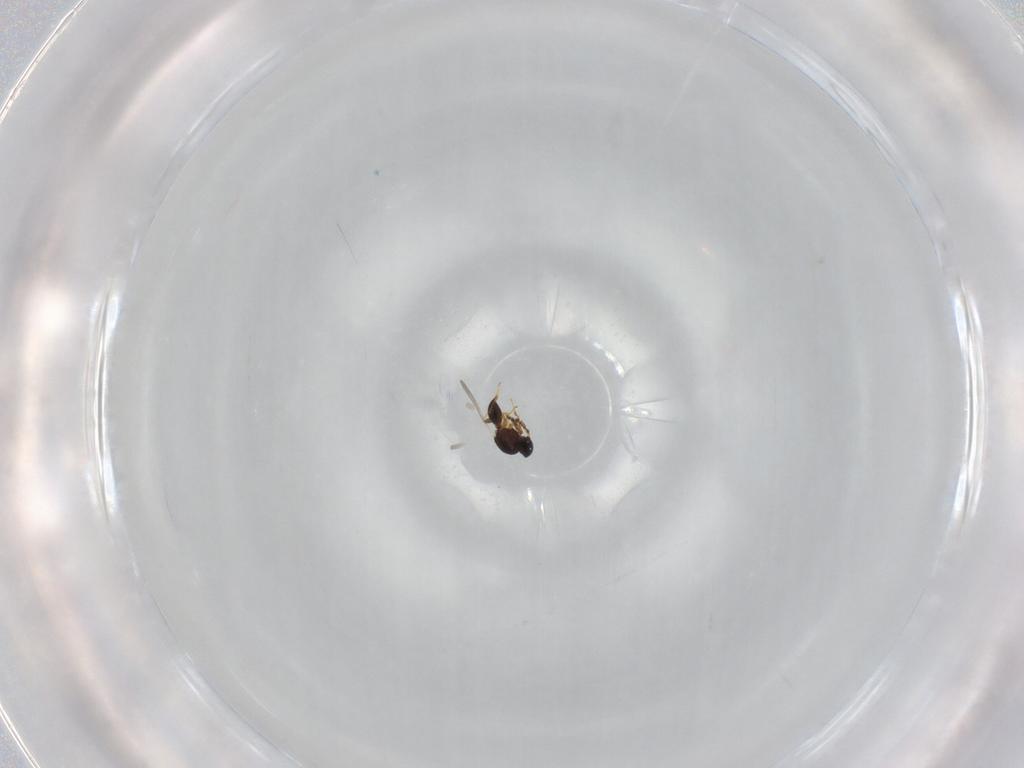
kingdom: Animalia
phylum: Arthropoda
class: Insecta
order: Hymenoptera
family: Platygastridae
